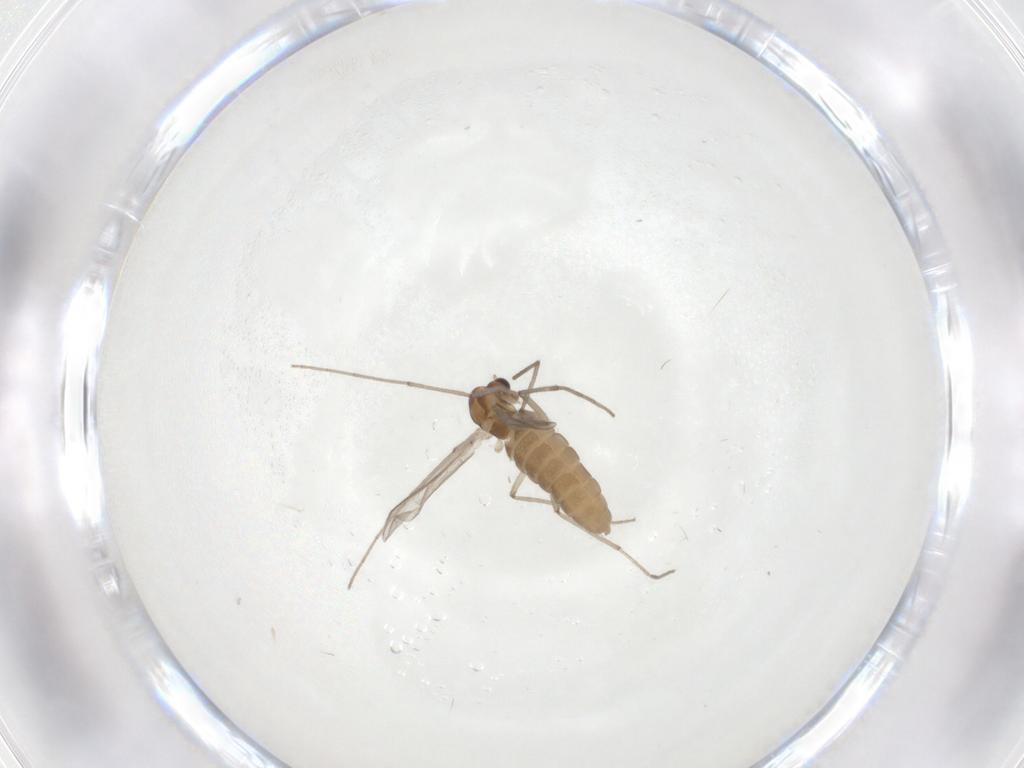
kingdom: Animalia
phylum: Arthropoda
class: Insecta
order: Diptera
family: Chironomidae
